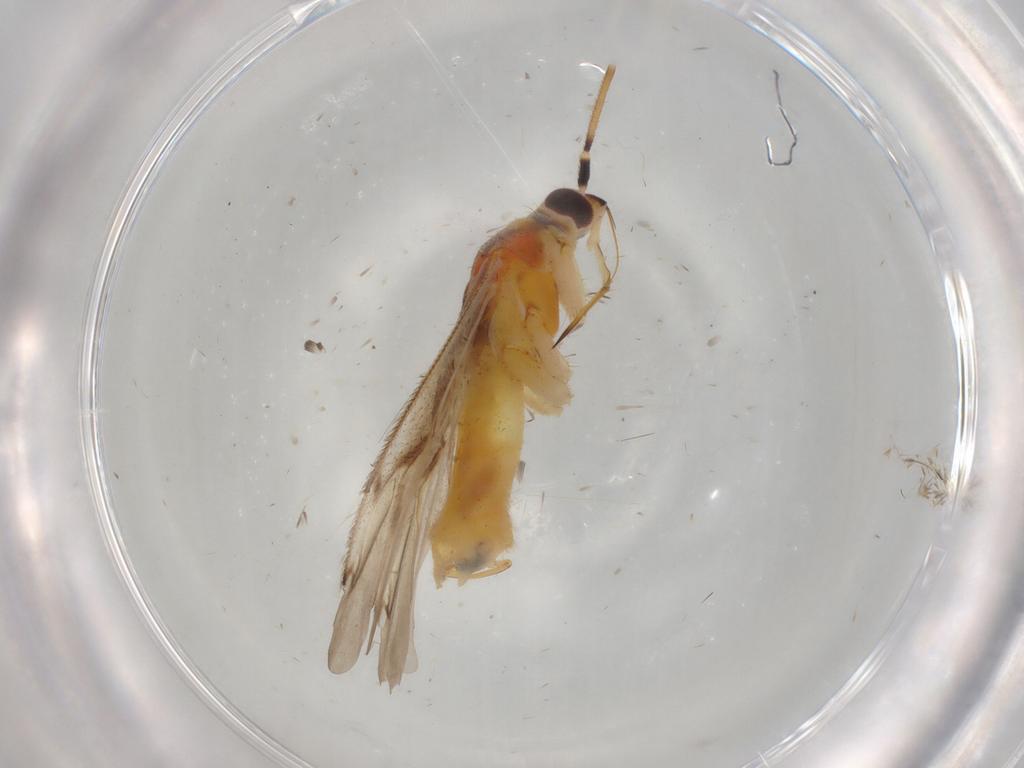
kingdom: Animalia
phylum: Arthropoda
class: Insecta
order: Hemiptera
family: Miridae
